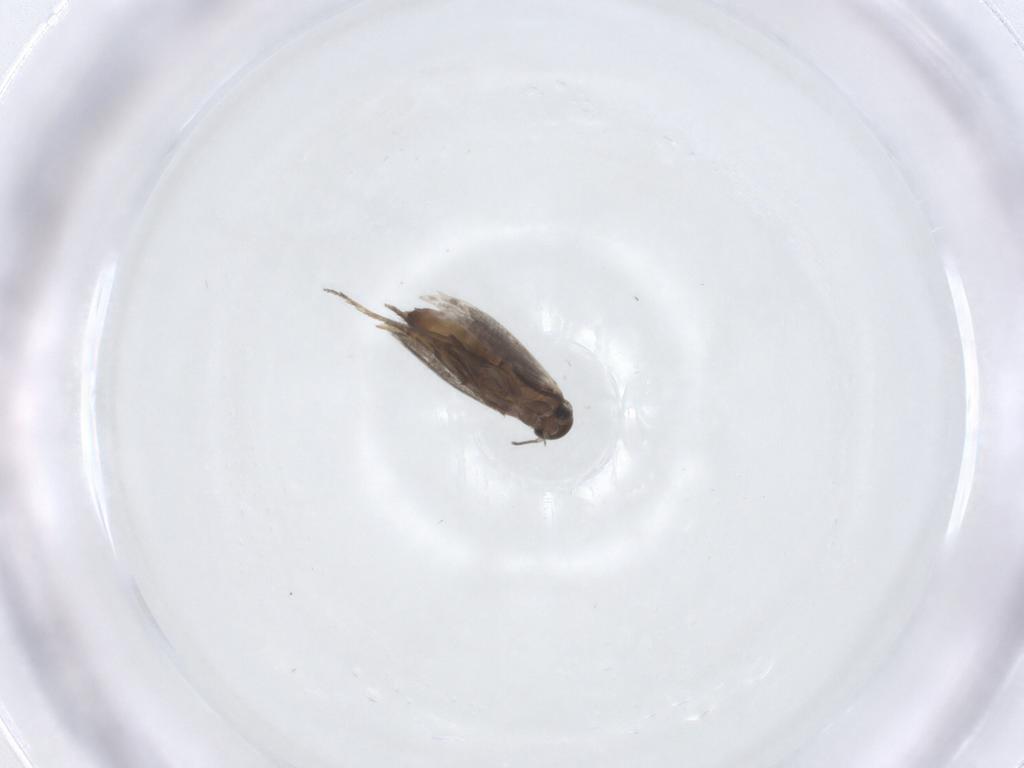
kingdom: Animalia
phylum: Arthropoda
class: Insecta
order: Lepidoptera
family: Elachistidae
